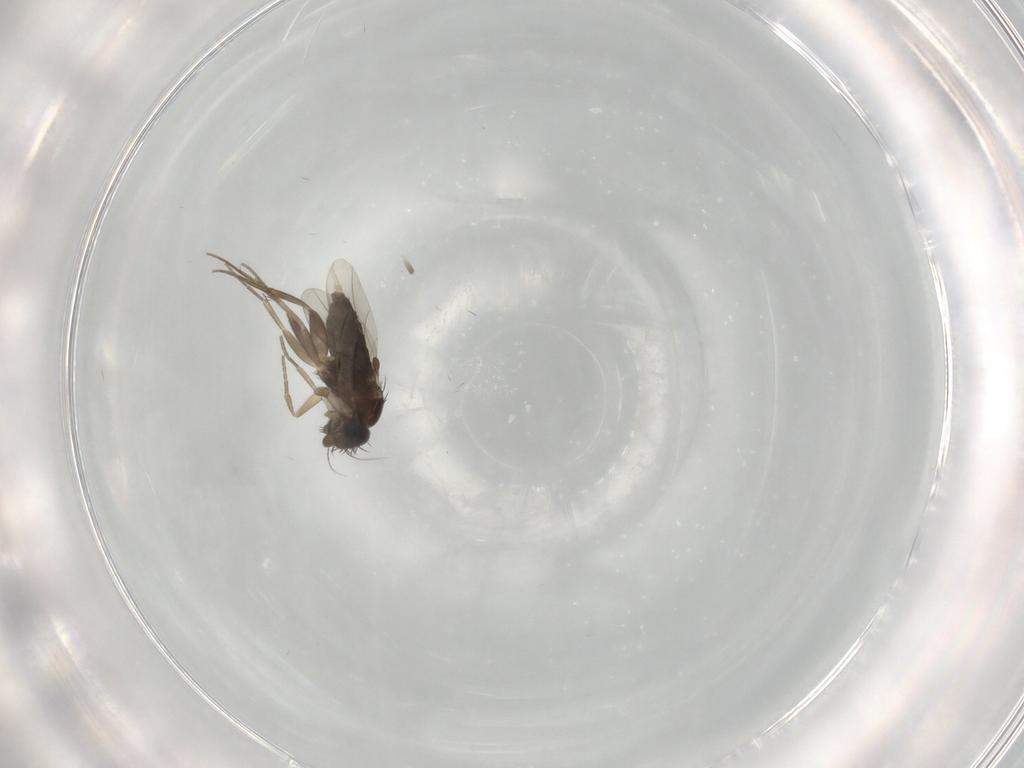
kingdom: Animalia
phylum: Arthropoda
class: Insecta
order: Diptera
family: Phoridae
